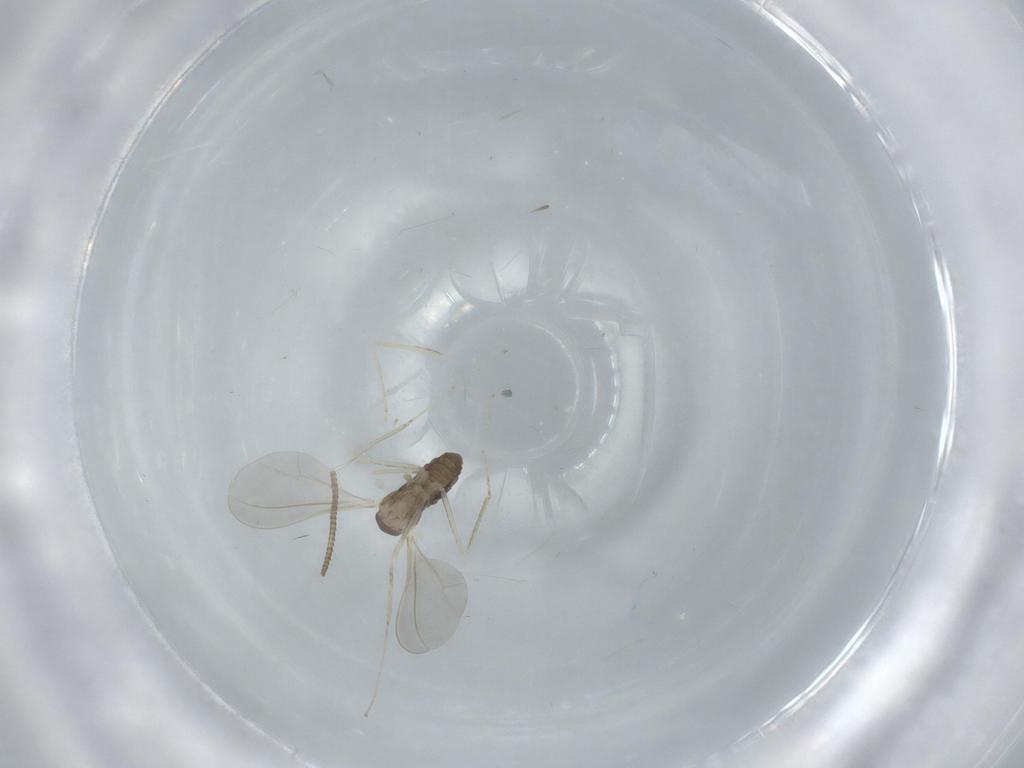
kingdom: Animalia
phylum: Arthropoda
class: Insecta
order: Diptera
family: Cecidomyiidae
